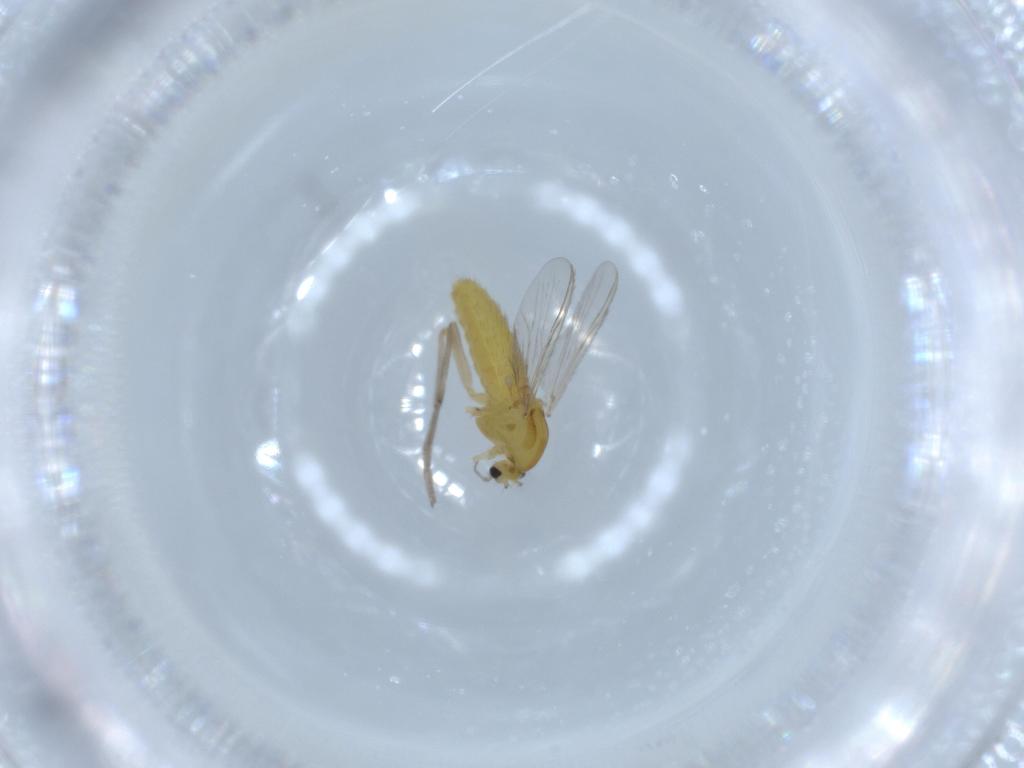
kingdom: Animalia
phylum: Arthropoda
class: Insecta
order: Diptera
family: Chironomidae
